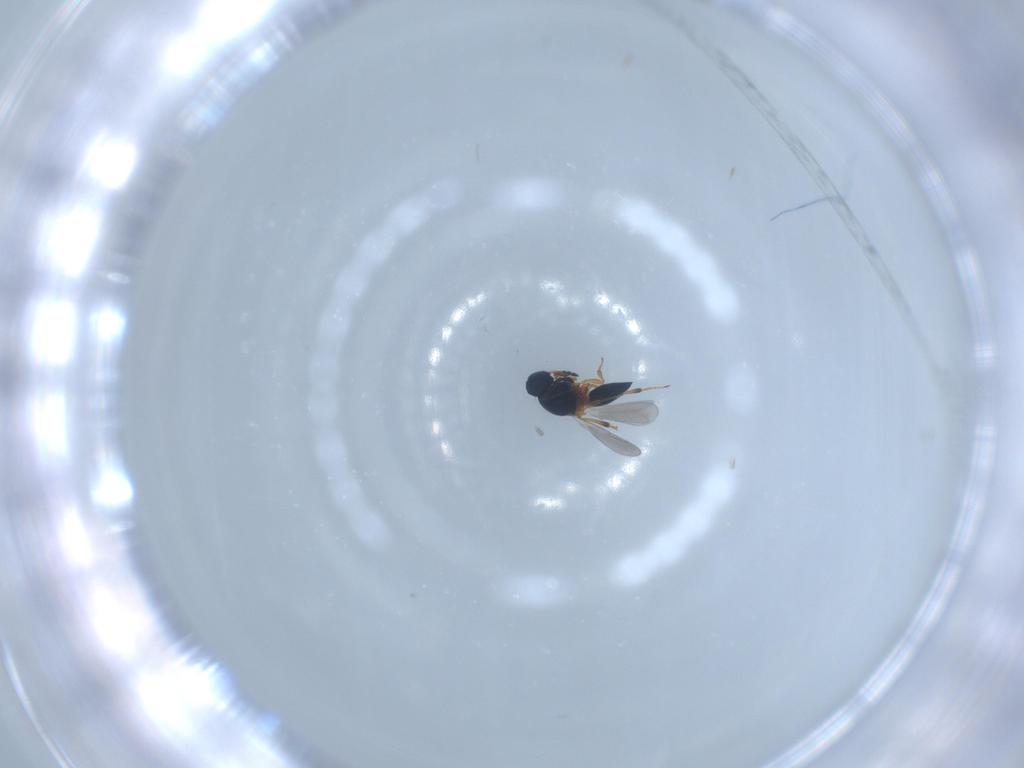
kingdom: Animalia
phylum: Arthropoda
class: Insecta
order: Hymenoptera
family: Platygastridae
